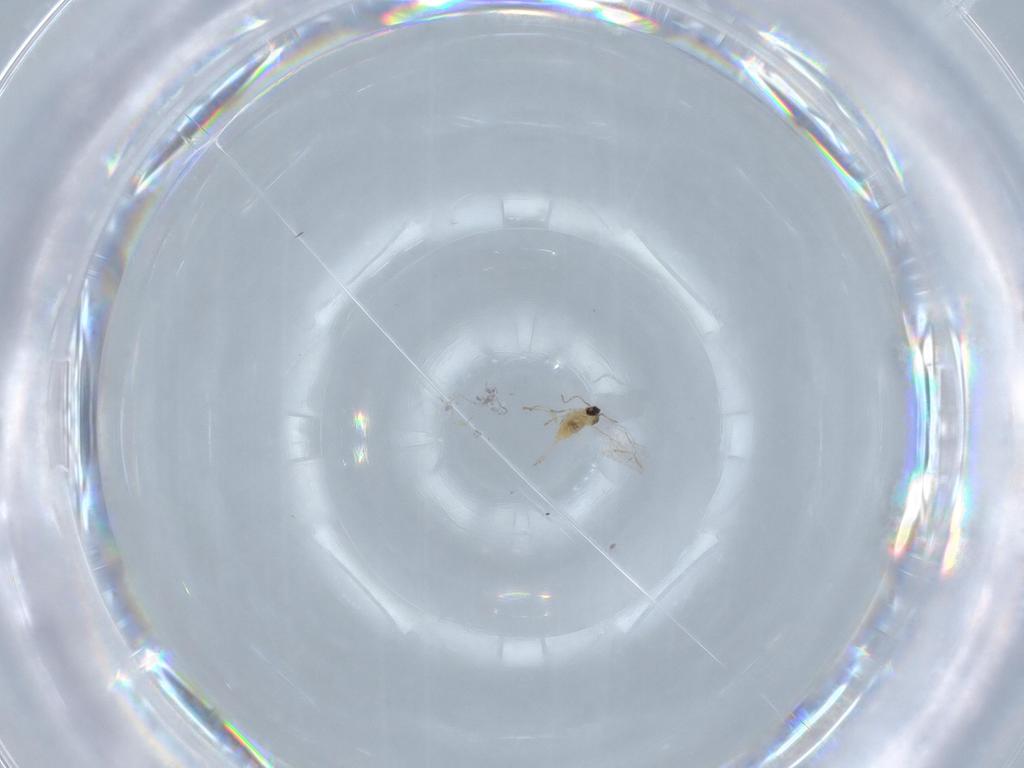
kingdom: Animalia
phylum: Arthropoda
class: Insecta
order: Diptera
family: Cecidomyiidae
